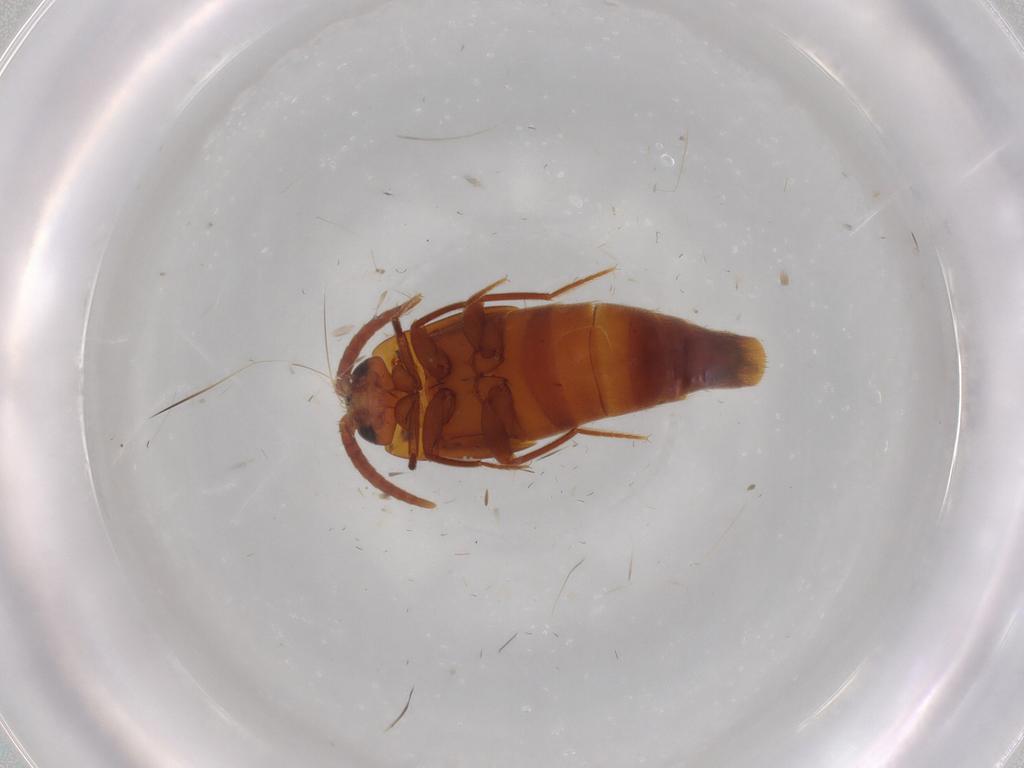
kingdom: Animalia
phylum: Arthropoda
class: Insecta
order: Coleoptera
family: Staphylinidae
